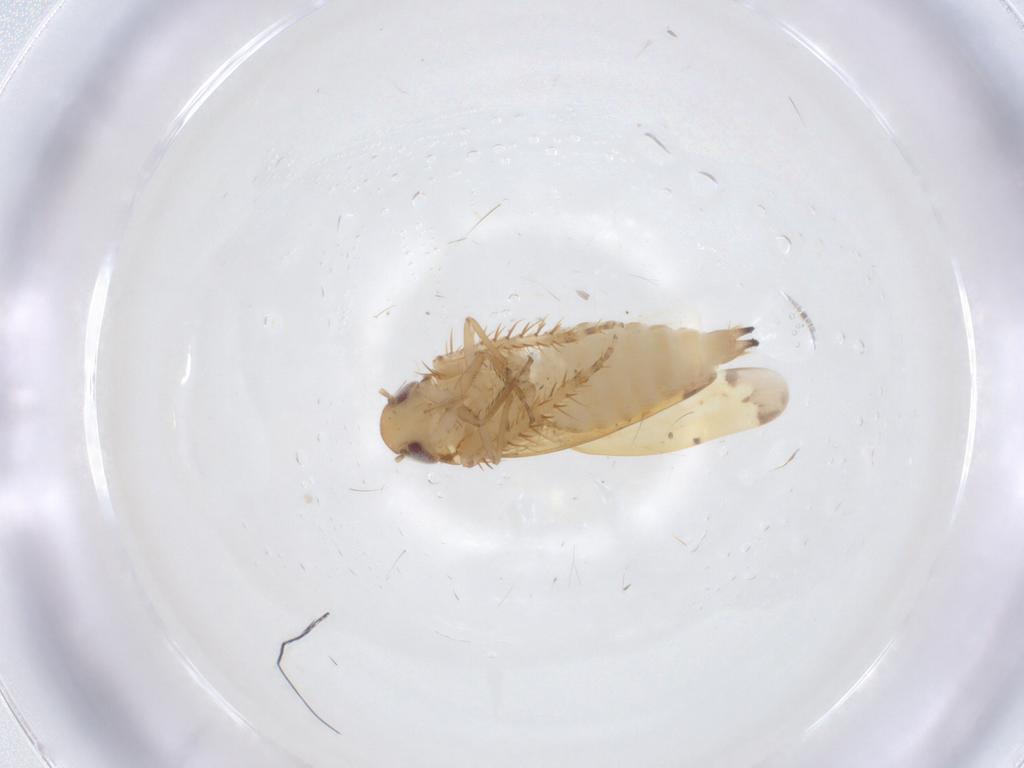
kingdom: Animalia
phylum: Arthropoda
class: Insecta
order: Hemiptera
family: Cicadellidae
